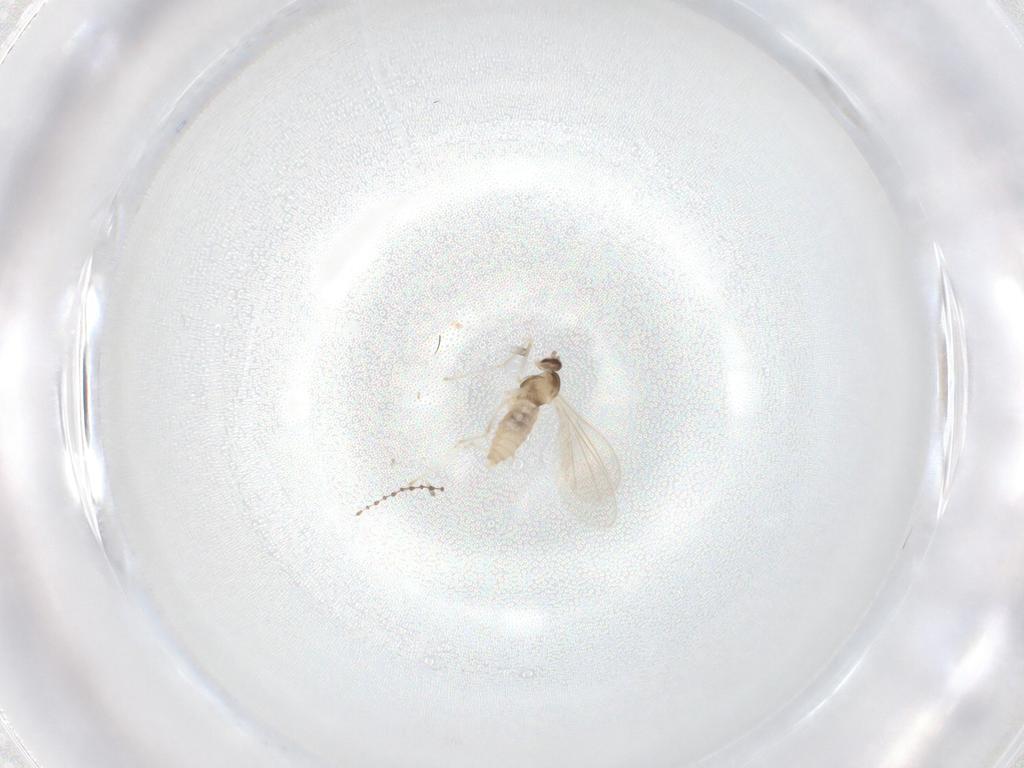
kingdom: Animalia
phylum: Arthropoda
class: Insecta
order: Diptera
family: Cecidomyiidae
